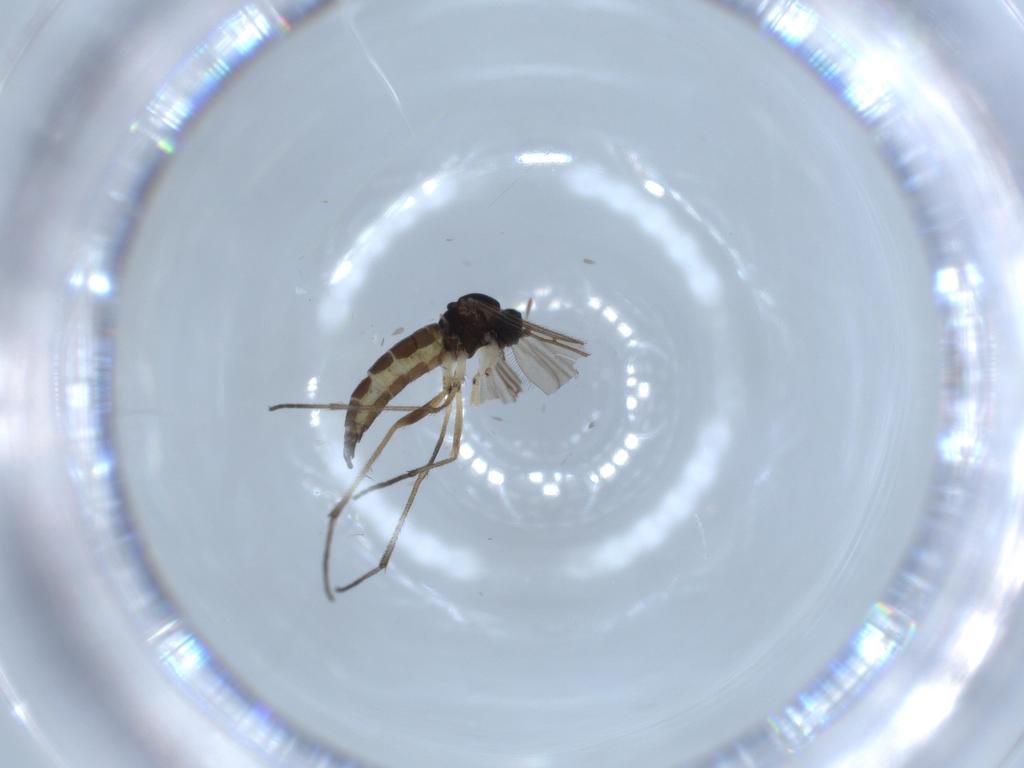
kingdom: Animalia
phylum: Arthropoda
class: Insecta
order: Diptera
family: Sciaridae
